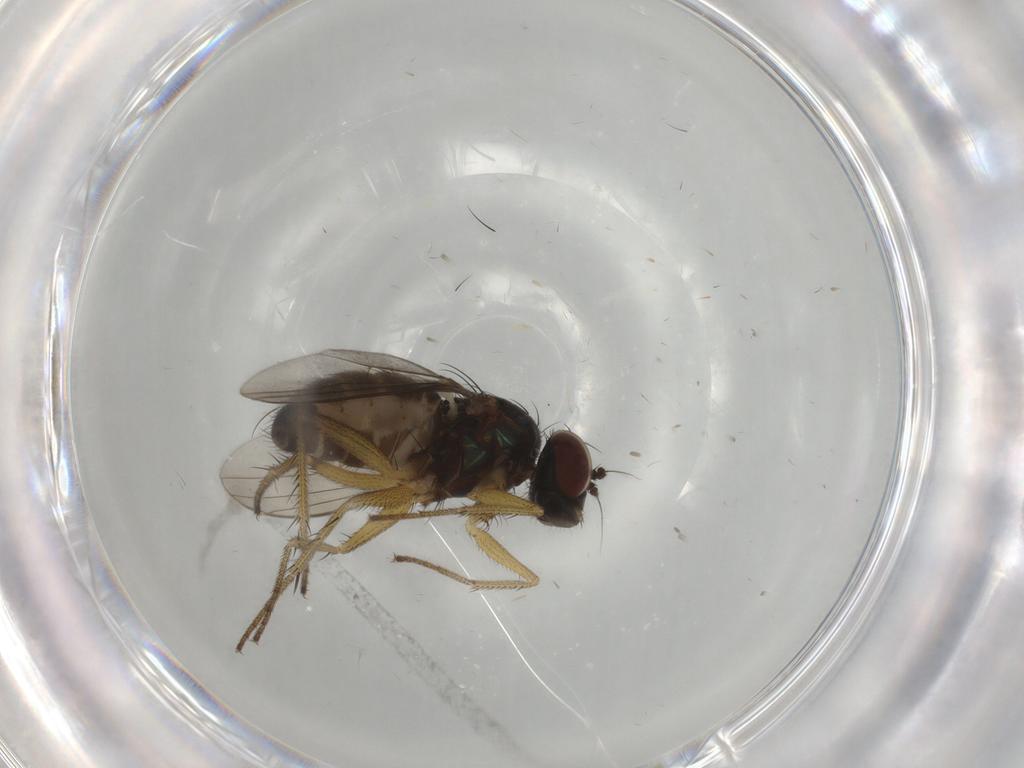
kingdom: Animalia
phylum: Arthropoda
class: Insecta
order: Diptera
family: Dolichopodidae
